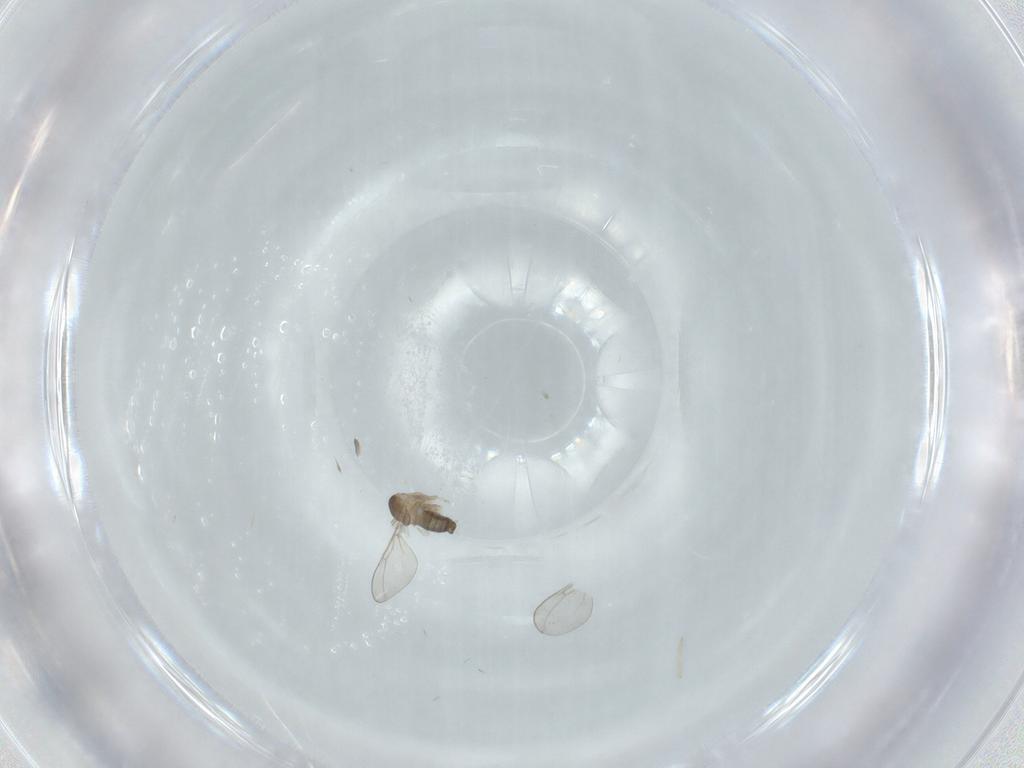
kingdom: Animalia
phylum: Arthropoda
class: Insecta
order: Diptera
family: Cecidomyiidae
